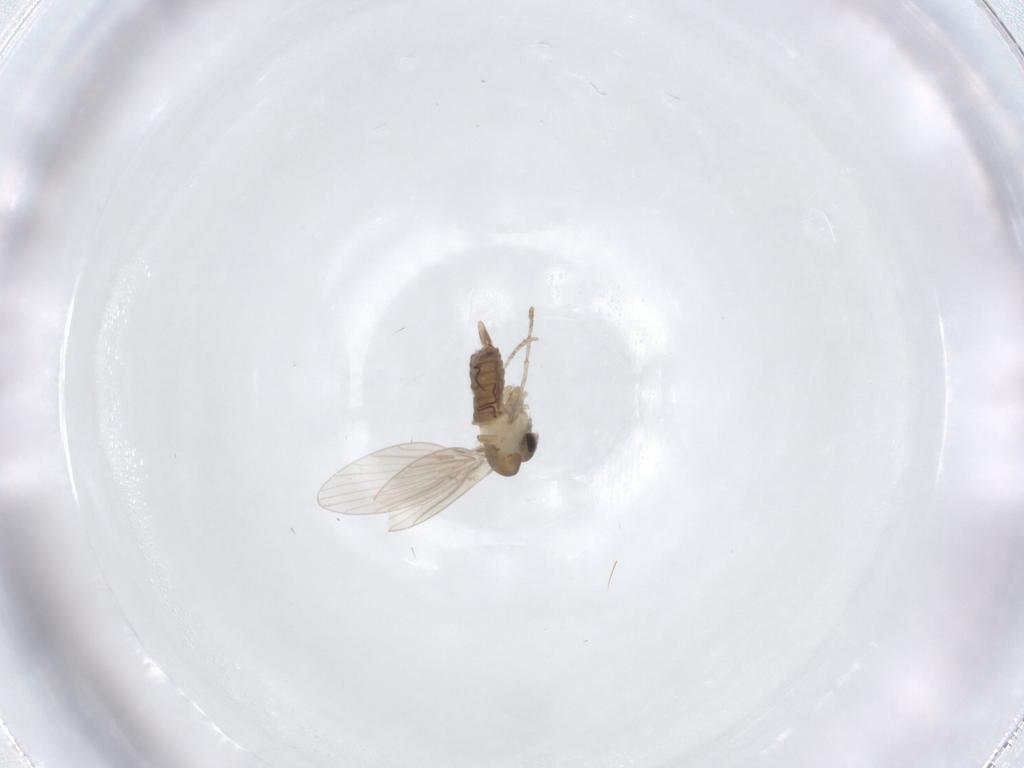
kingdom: Animalia
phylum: Arthropoda
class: Insecta
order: Diptera
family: Psychodidae
